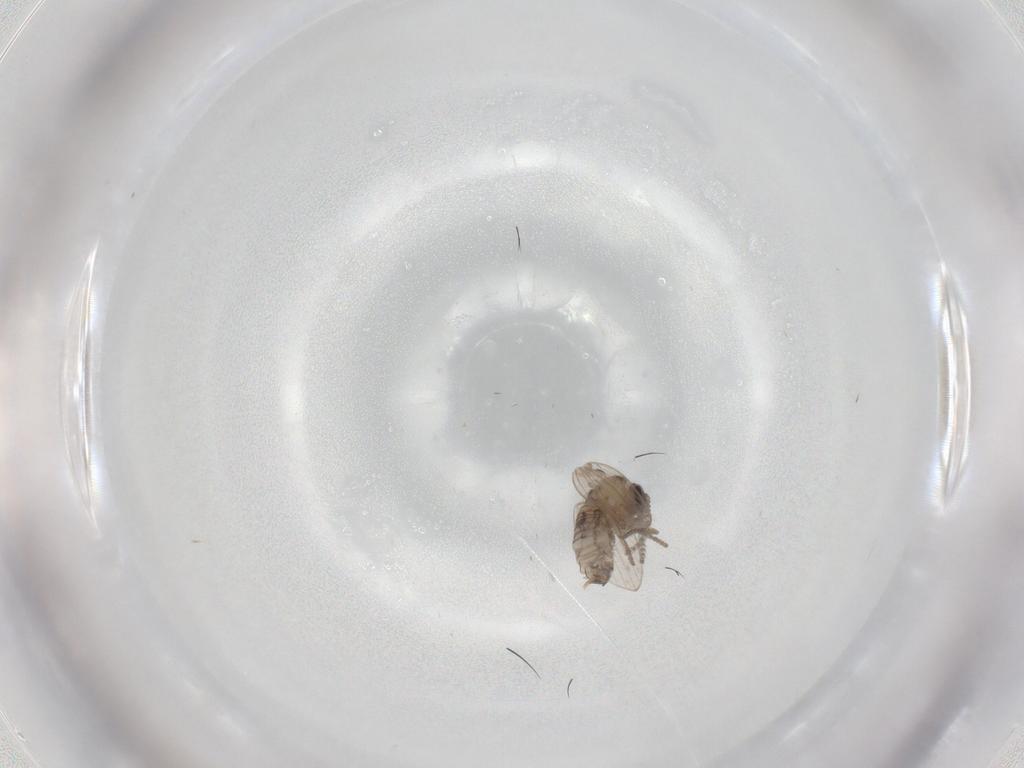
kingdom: Animalia
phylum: Arthropoda
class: Insecta
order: Diptera
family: Psychodidae
